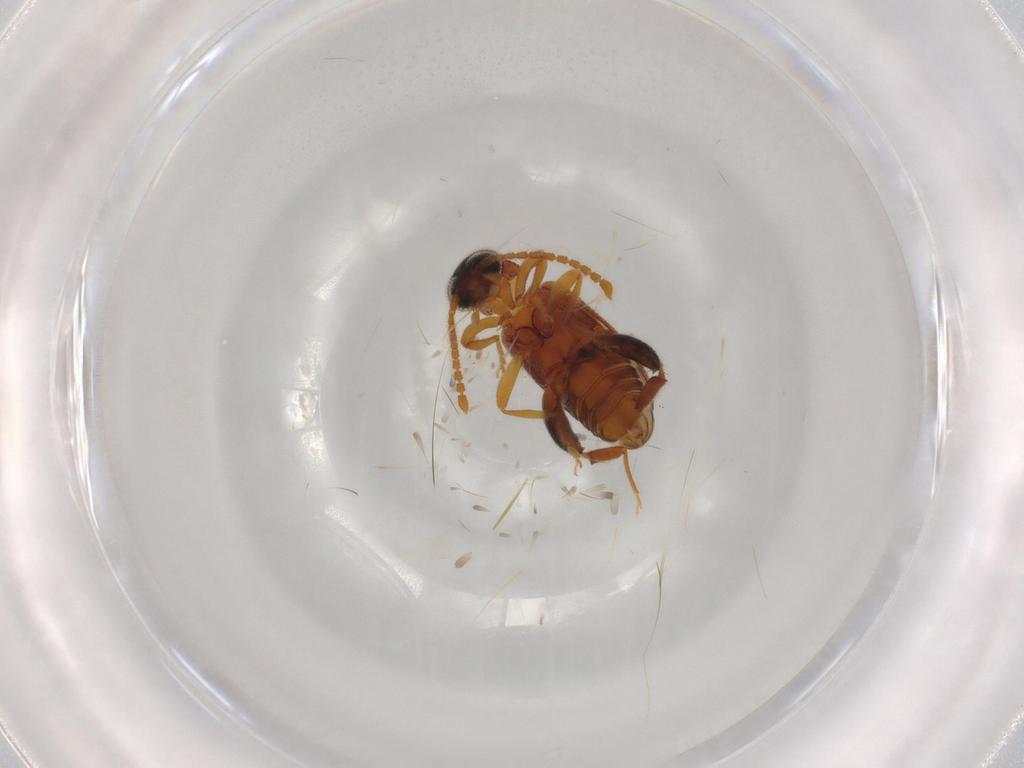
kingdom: Animalia
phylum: Arthropoda
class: Insecta
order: Coleoptera
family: Aderidae
